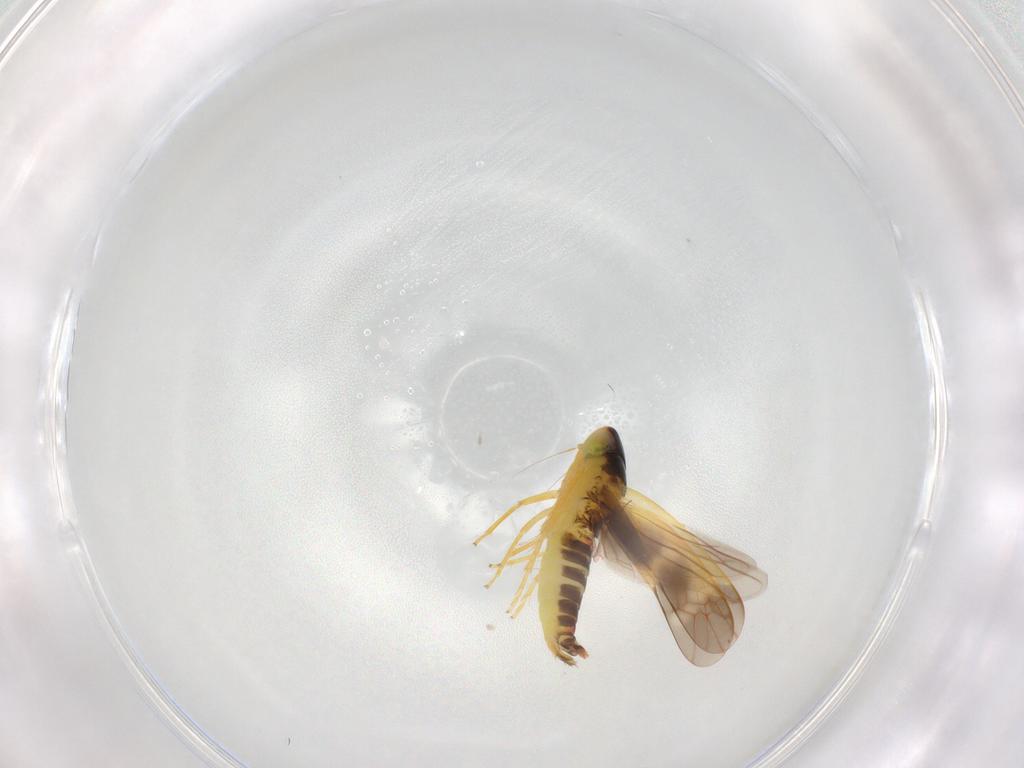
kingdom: Animalia
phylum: Arthropoda
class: Insecta
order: Hemiptera
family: Cicadellidae
